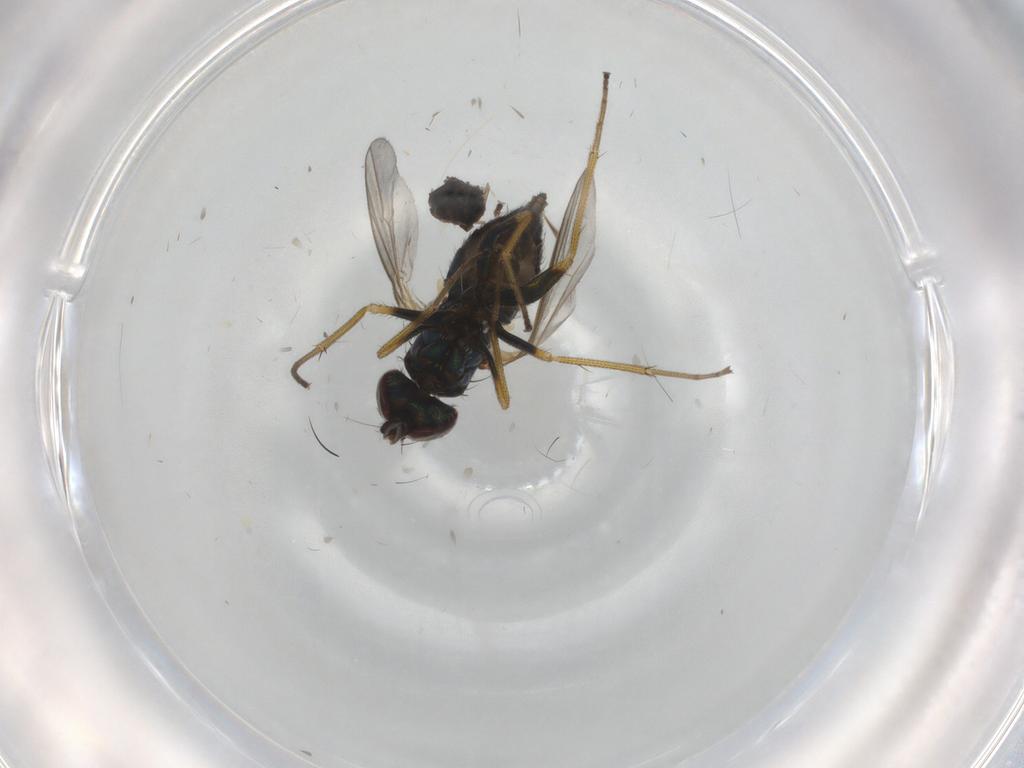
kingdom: Animalia
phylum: Arthropoda
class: Insecta
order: Diptera
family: Dolichopodidae
